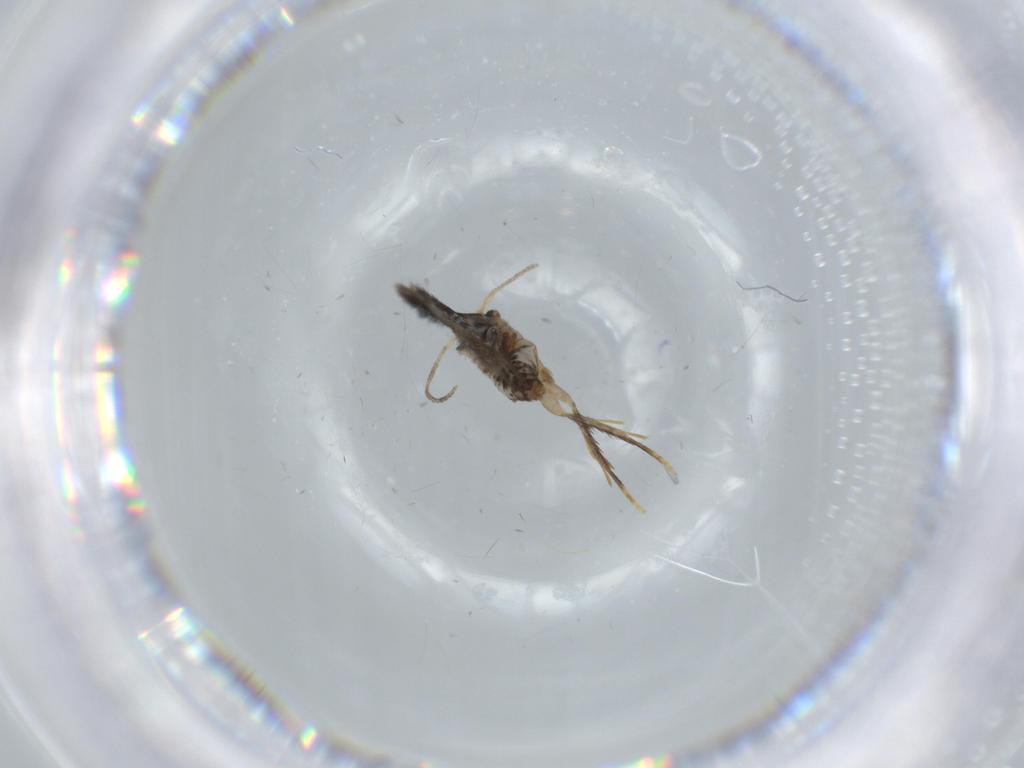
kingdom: Animalia
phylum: Arthropoda
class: Insecta
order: Lepidoptera
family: Nepticulidae
